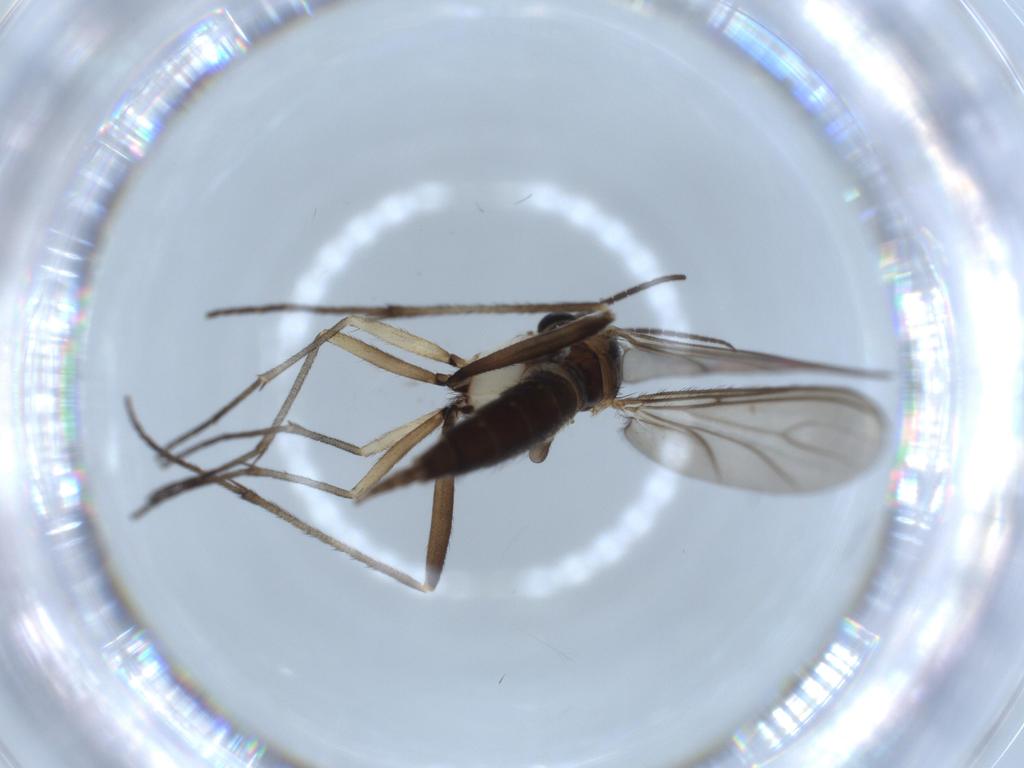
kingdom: Animalia
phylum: Arthropoda
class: Insecta
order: Diptera
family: Sciaridae
